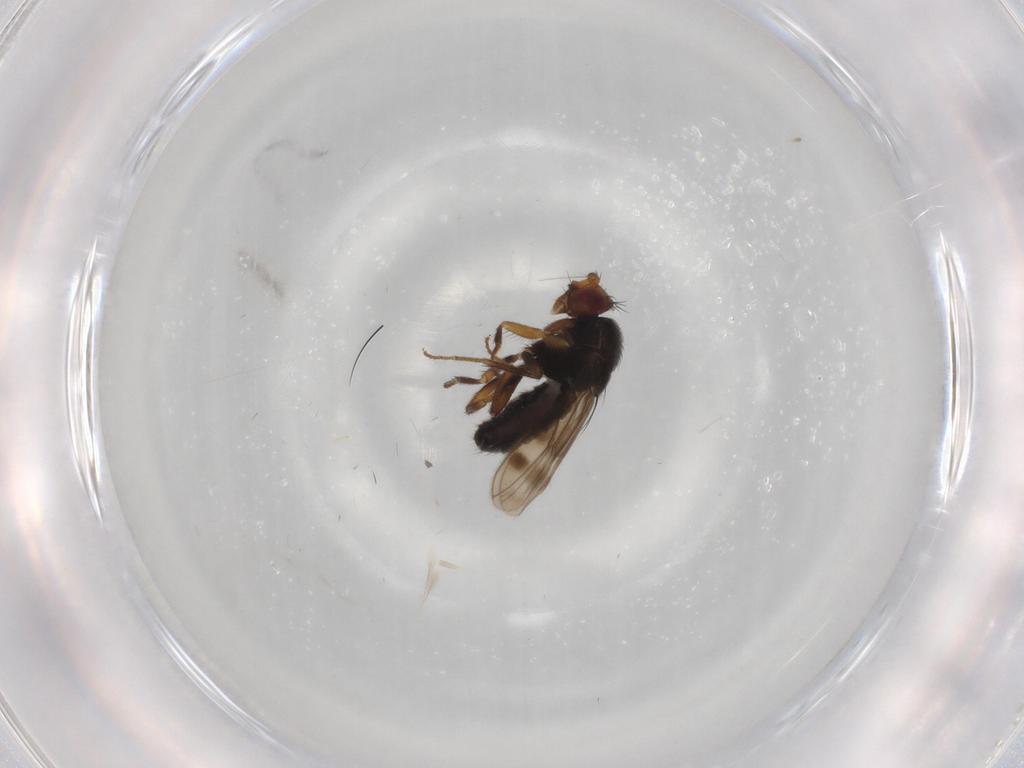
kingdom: Animalia
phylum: Arthropoda
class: Insecta
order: Diptera
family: Sphaeroceridae
